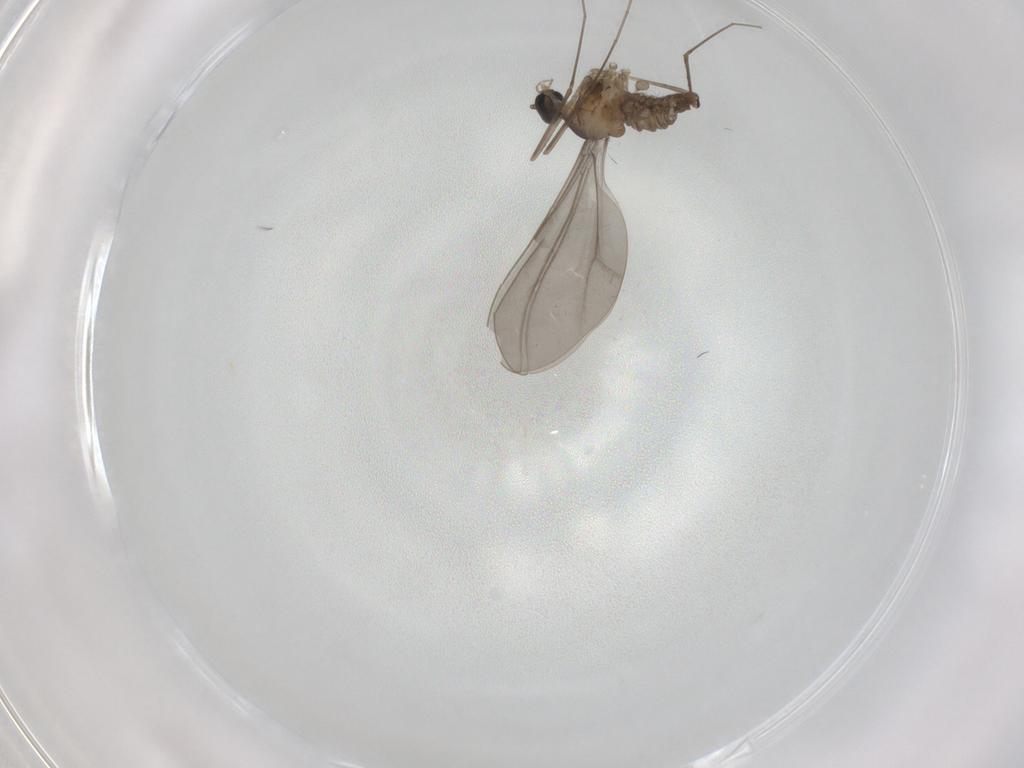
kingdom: Animalia
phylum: Arthropoda
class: Insecta
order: Diptera
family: Cecidomyiidae
